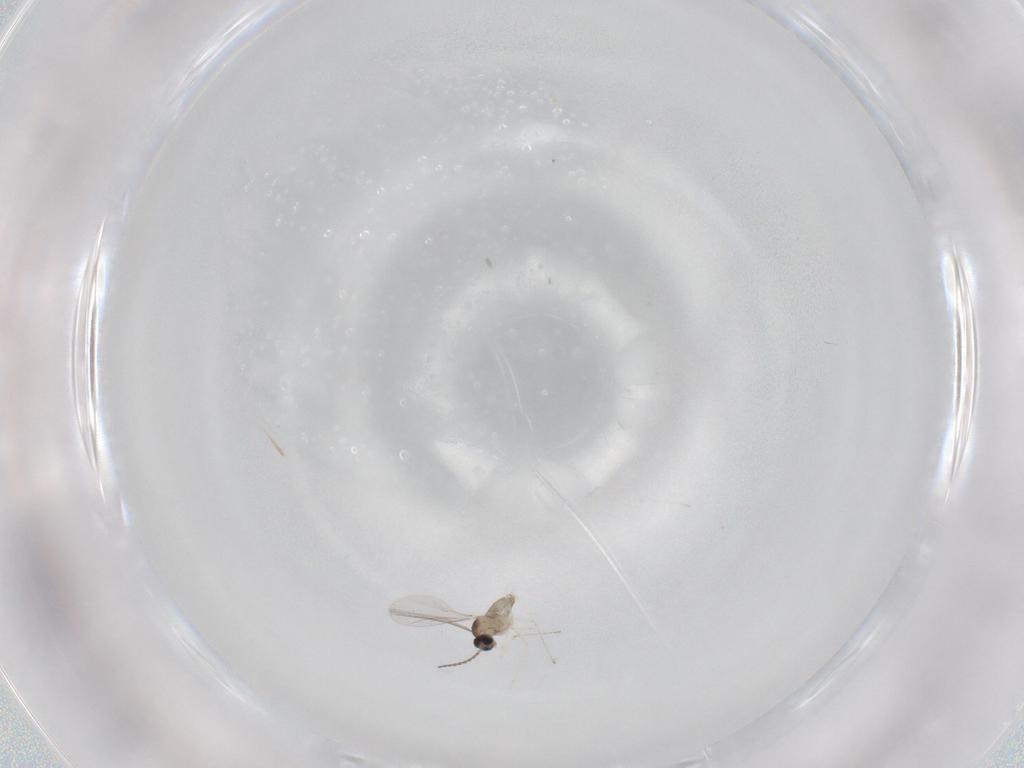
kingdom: Animalia
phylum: Arthropoda
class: Insecta
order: Diptera
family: Cecidomyiidae
